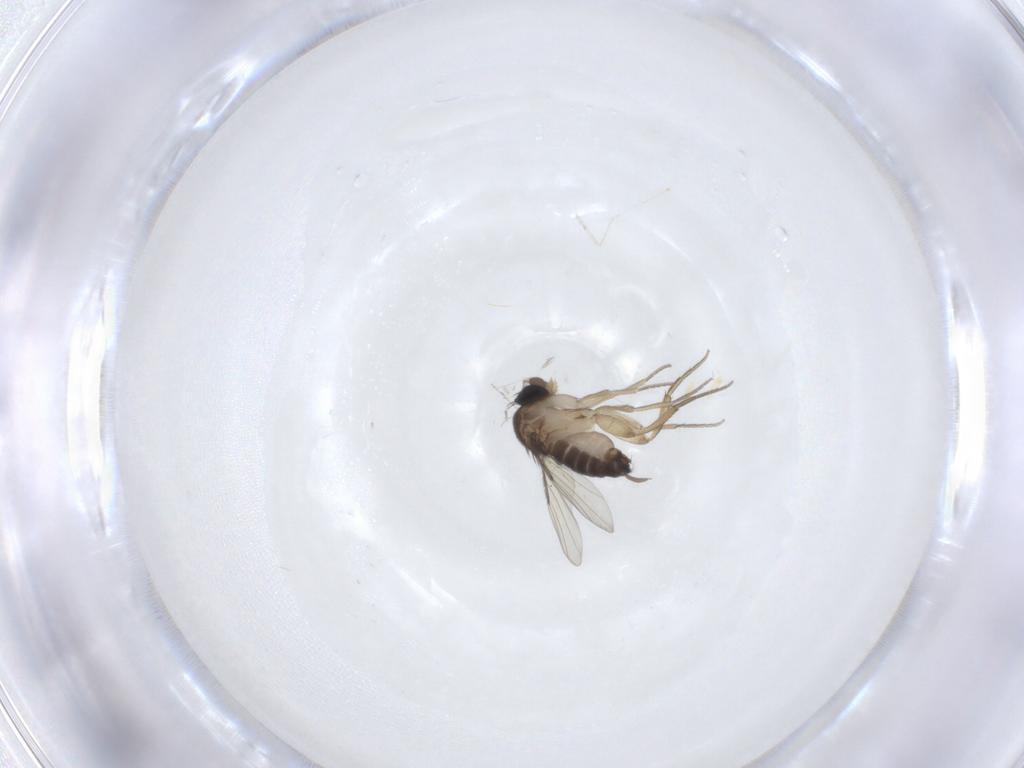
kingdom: Animalia
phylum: Arthropoda
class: Insecta
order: Diptera
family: Cecidomyiidae
